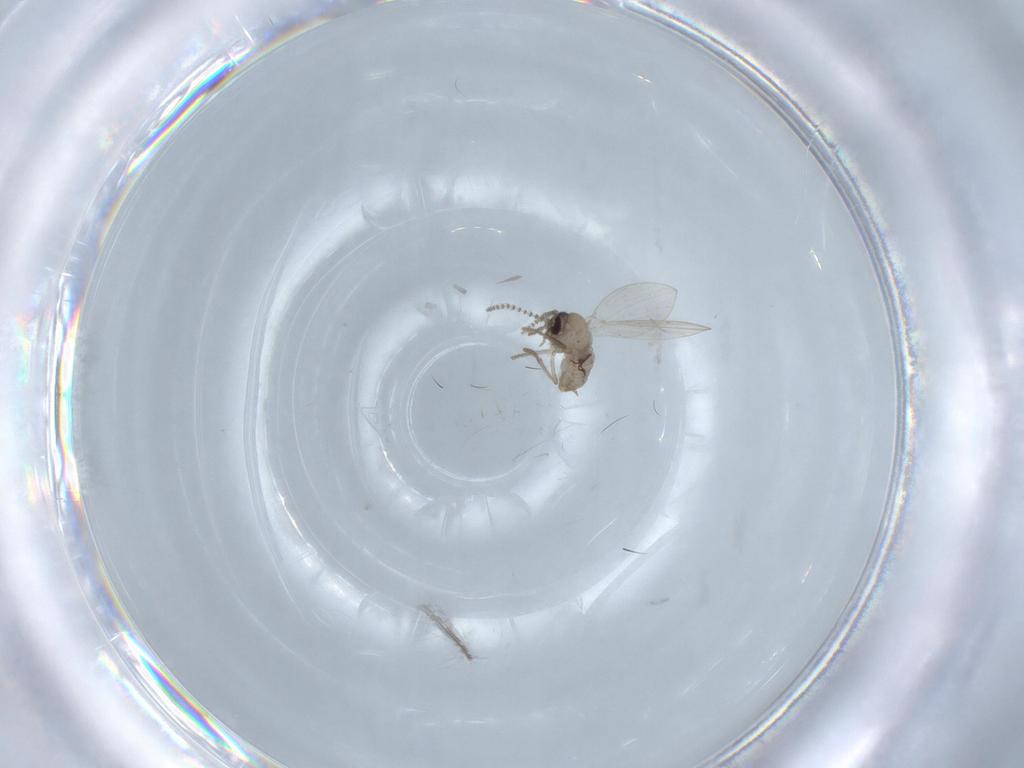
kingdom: Animalia
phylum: Arthropoda
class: Insecta
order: Diptera
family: Psychodidae
